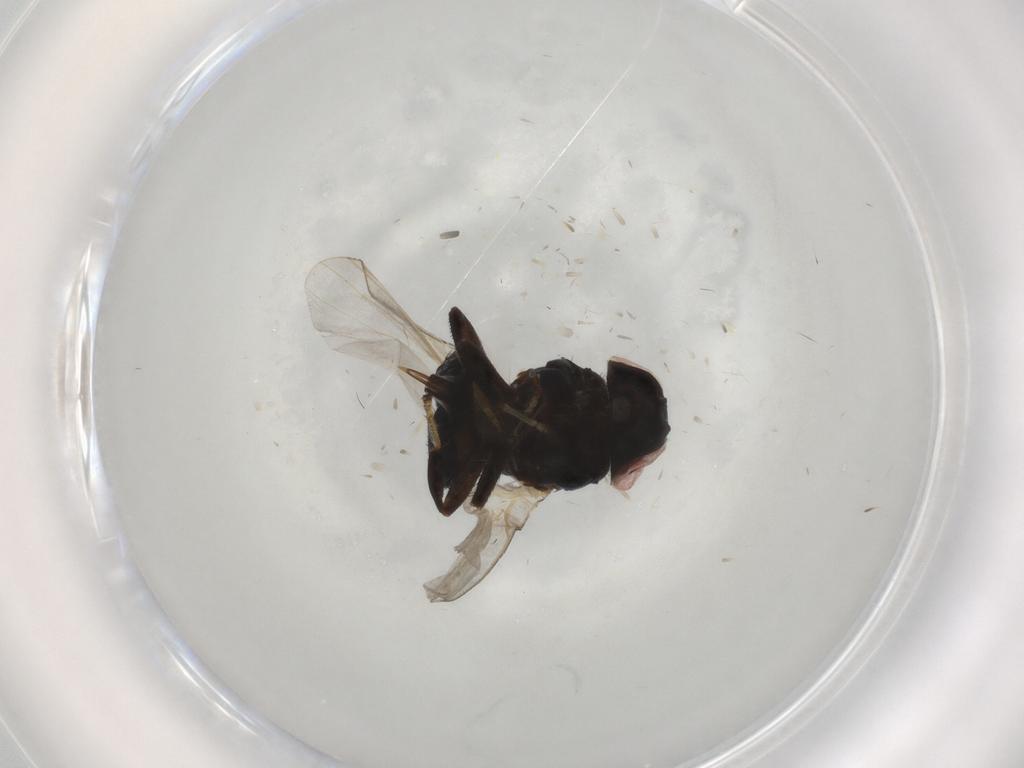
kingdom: Animalia
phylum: Arthropoda
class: Insecta
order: Diptera
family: Lonchaeidae
